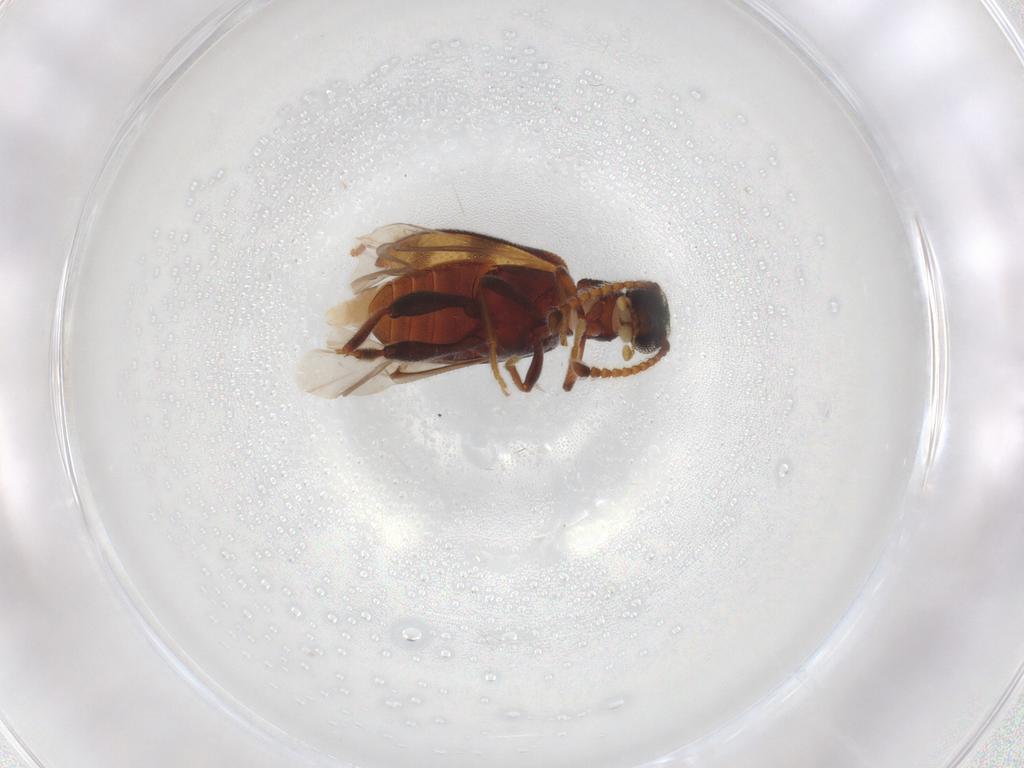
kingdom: Animalia
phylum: Arthropoda
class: Insecta
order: Coleoptera
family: Aderidae
